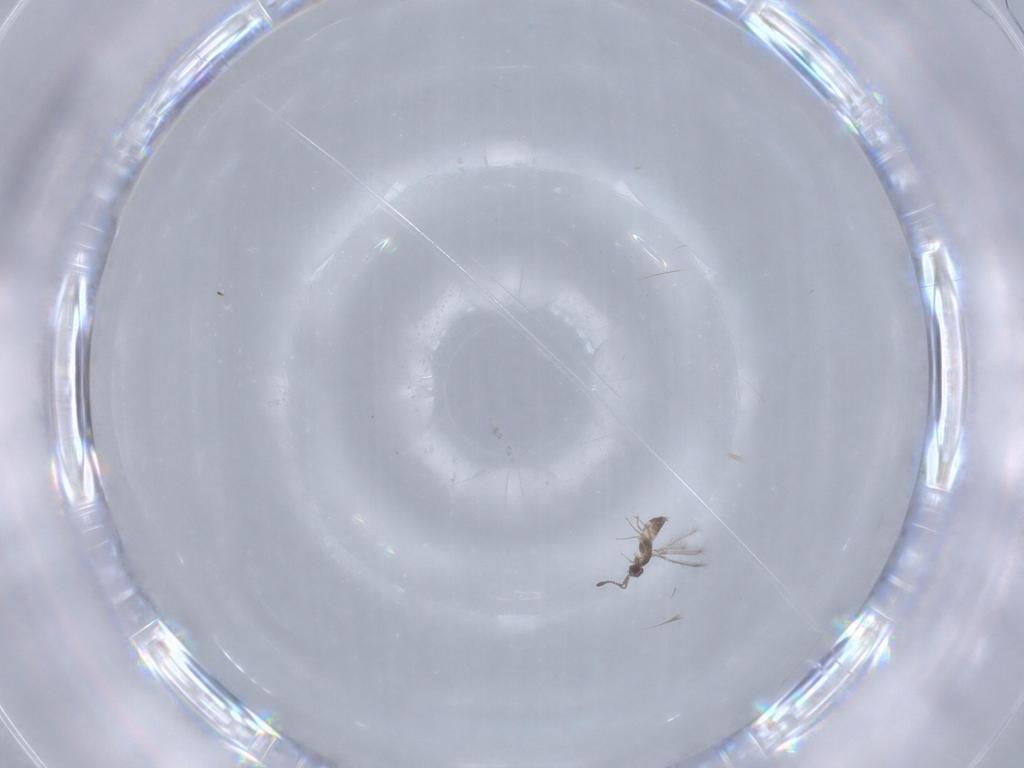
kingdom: Animalia
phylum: Arthropoda
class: Insecta
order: Hymenoptera
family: Mymaridae
